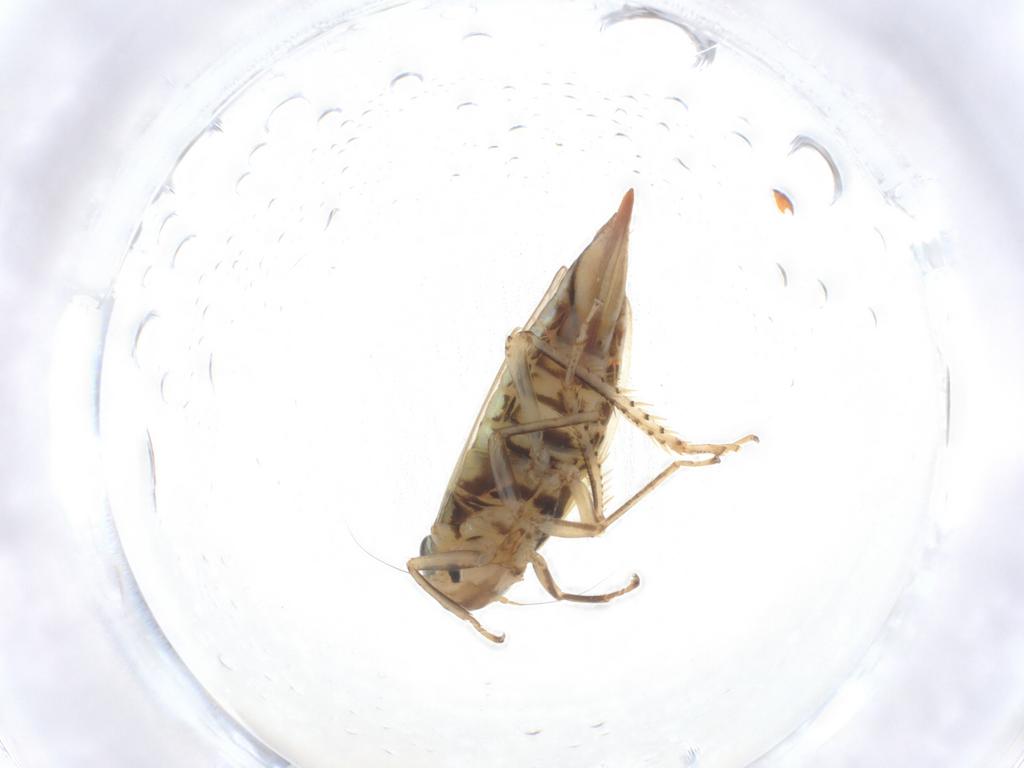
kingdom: Animalia
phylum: Arthropoda
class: Insecta
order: Hemiptera
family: Cicadellidae
